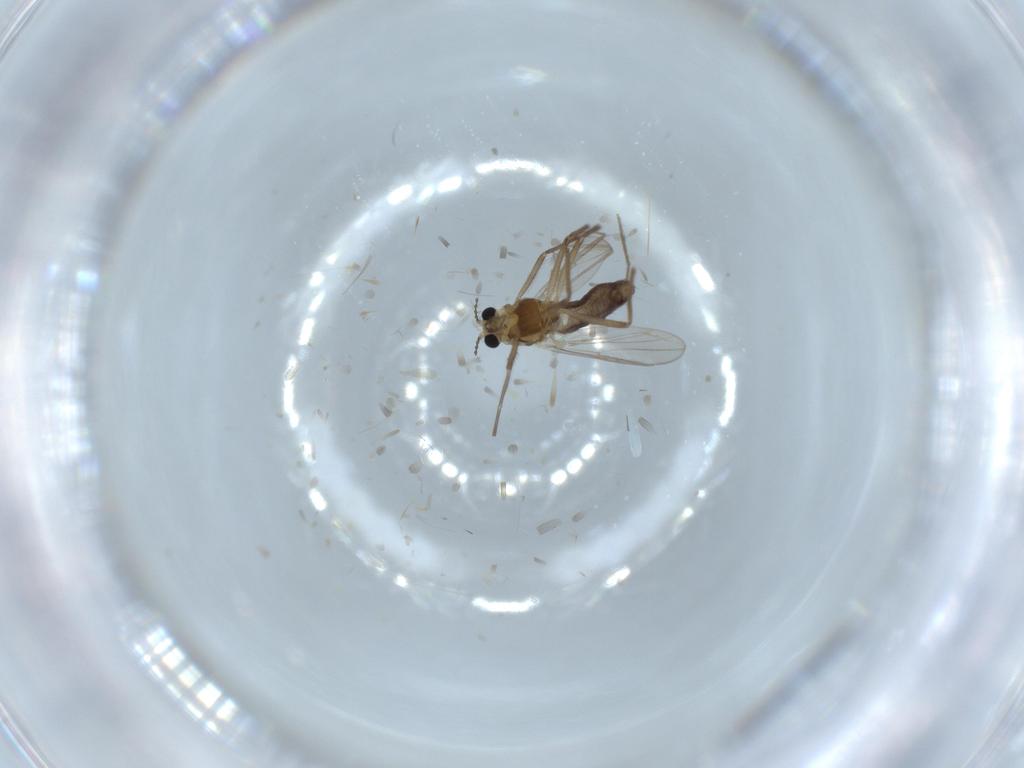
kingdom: Animalia
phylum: Arthropoda
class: Insecta
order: Diptera
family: Chironomidae
